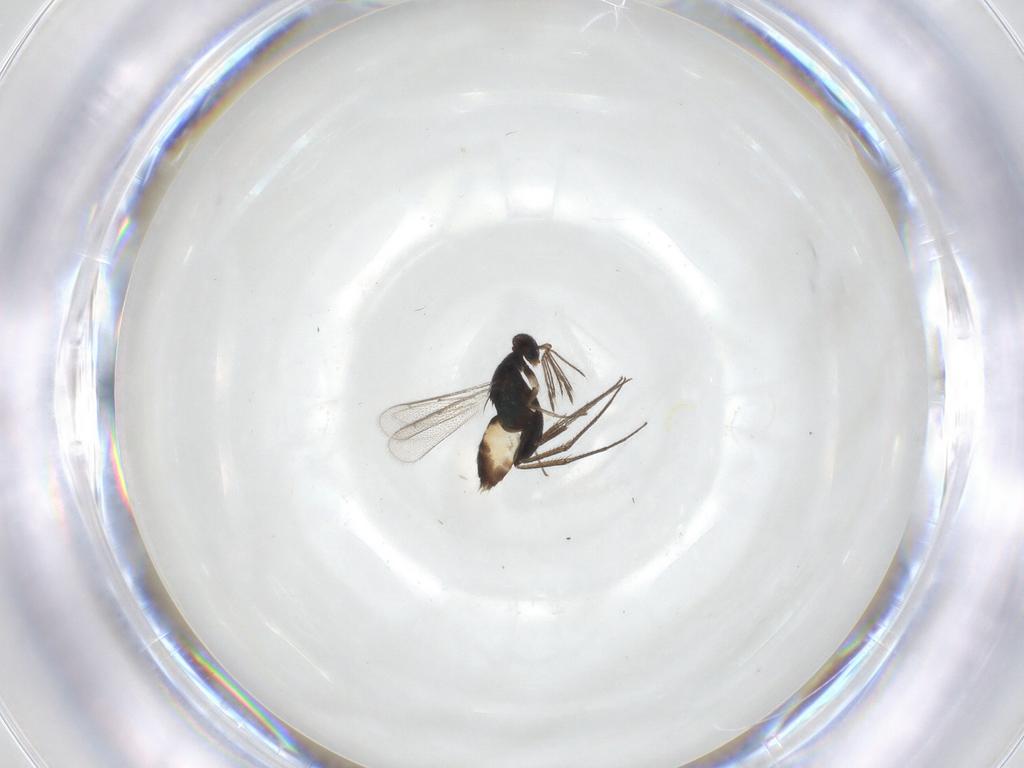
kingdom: Animalia
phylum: Arthropoda
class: Insecta
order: Hymenoptera
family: Eulophidae
